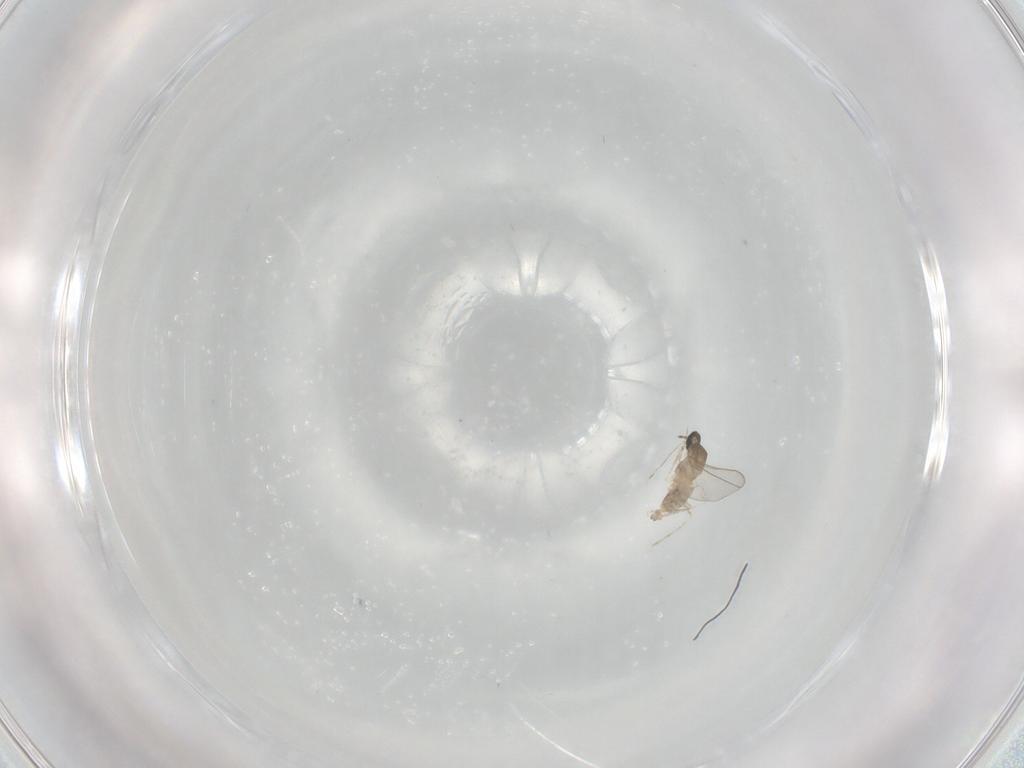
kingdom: Animalia
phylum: Arthropoda
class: Insecta
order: Diptera
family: Cecidomyiidae
